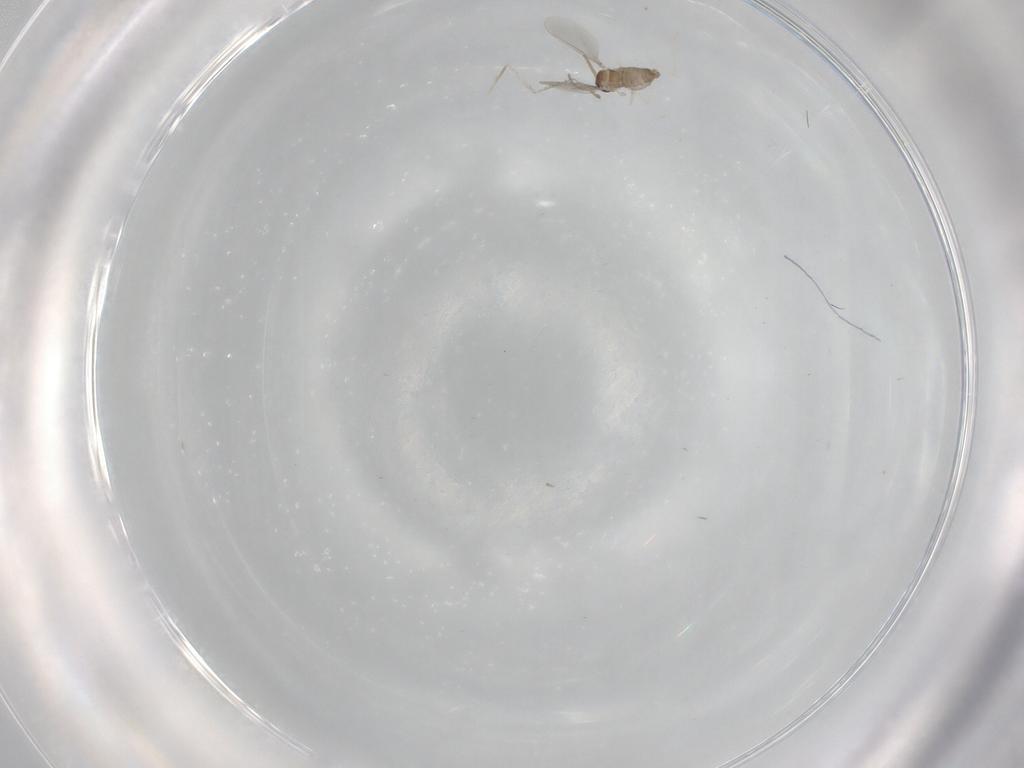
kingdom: Animalia
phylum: Arthropoda
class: Insecta
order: Diptera
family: Cecidomyiidae
